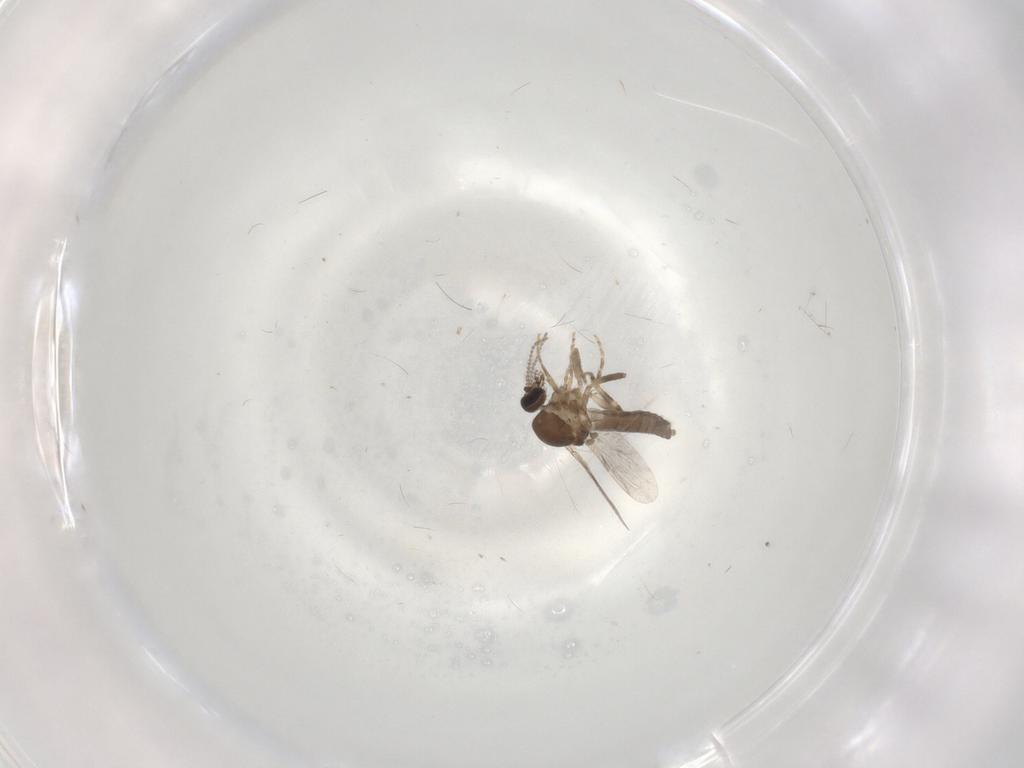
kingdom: Animalia
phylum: Arthropoda
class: Insecta
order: Diptera
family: Ceratopogonidae
